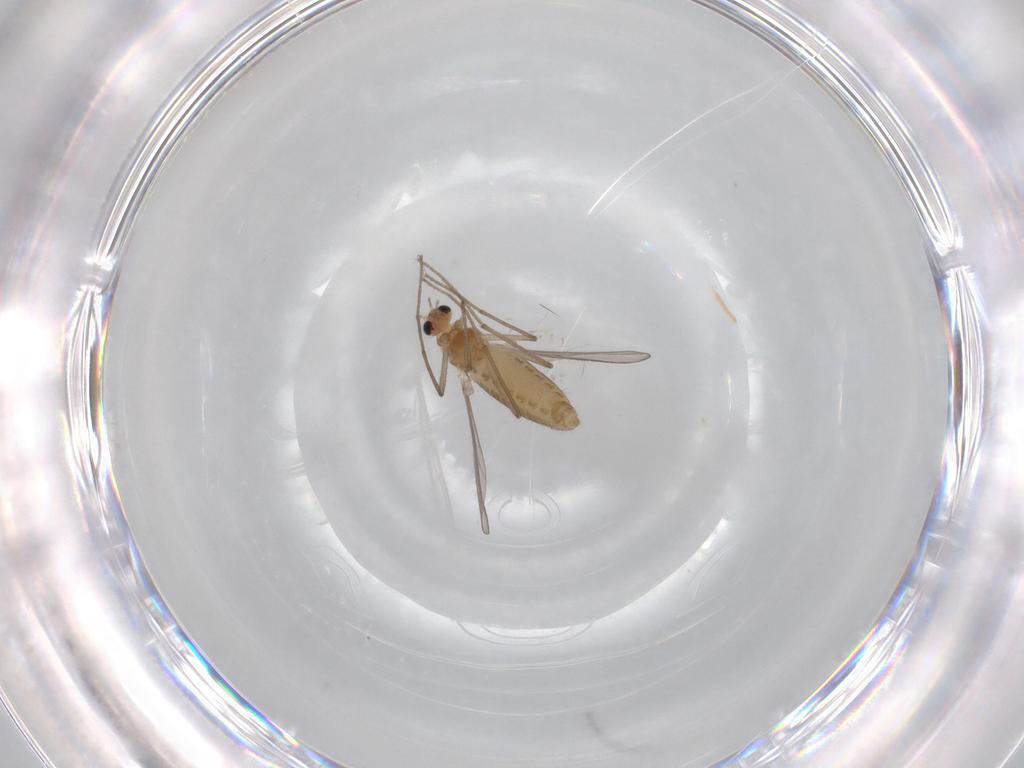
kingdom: Animalia
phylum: Arthropoda
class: Insecta
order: Diptera
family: Chironomidae
